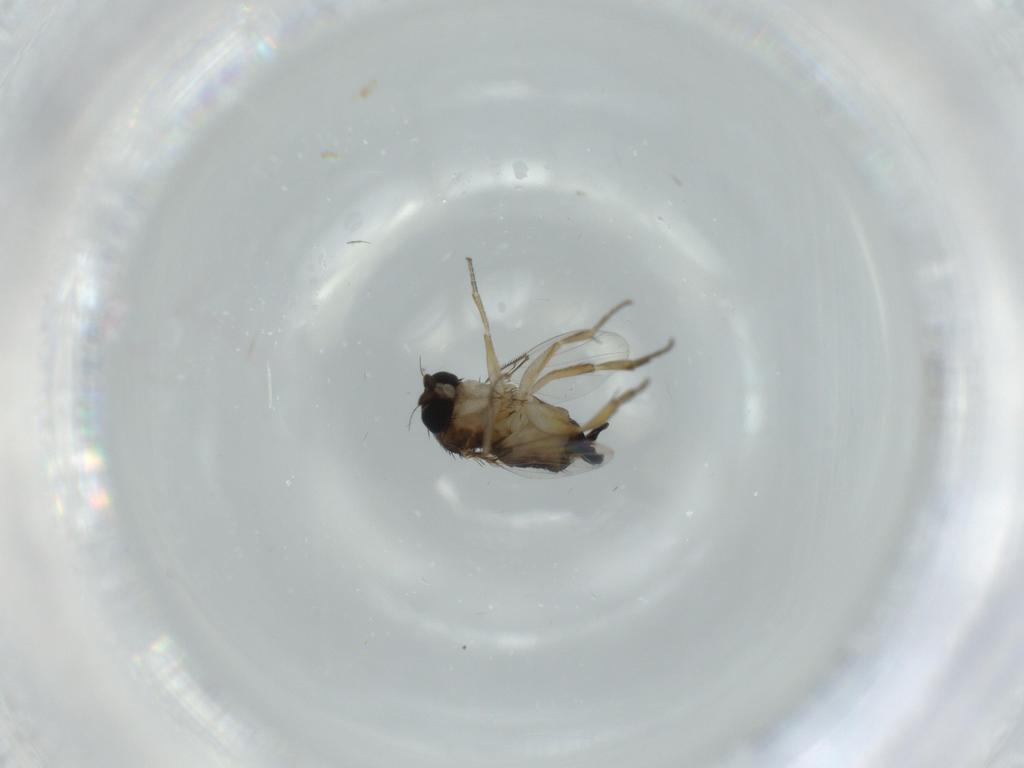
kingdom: Animalia
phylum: Arthropoda
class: Insecta
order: Diptera
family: Phoridae
